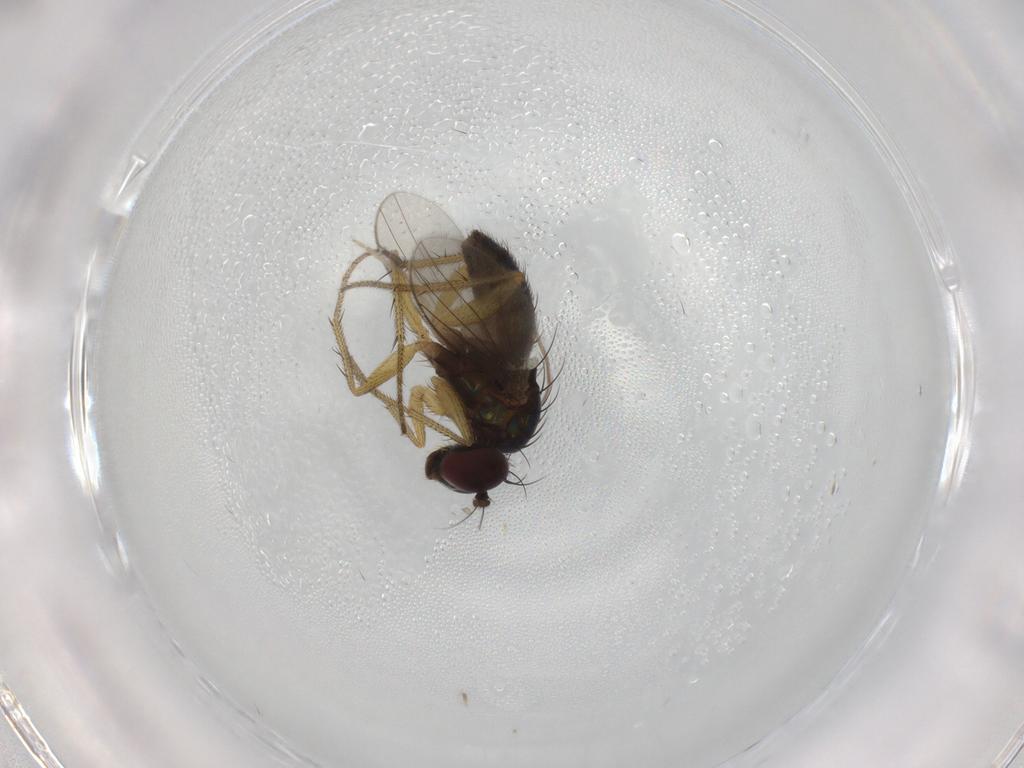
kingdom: Animalia
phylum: Arthropoda
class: Insecta
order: Diptera
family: Dolichopodidae
